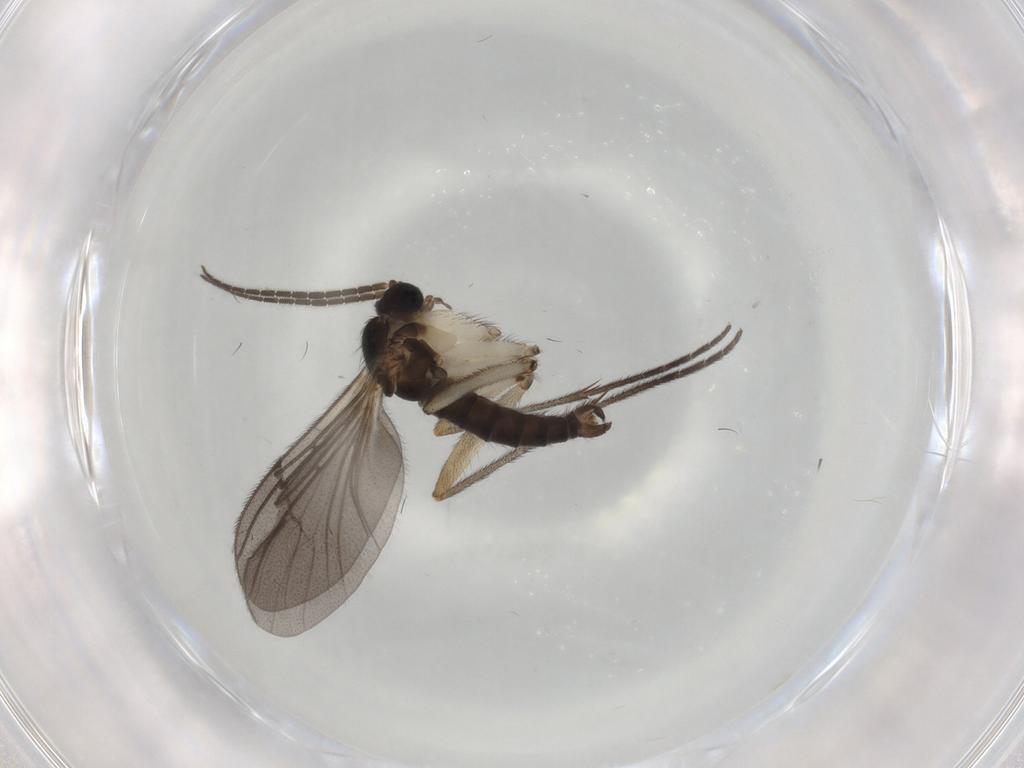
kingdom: Animalia
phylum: Arthropoda
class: Insecta
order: Diptera
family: Sciaridae
